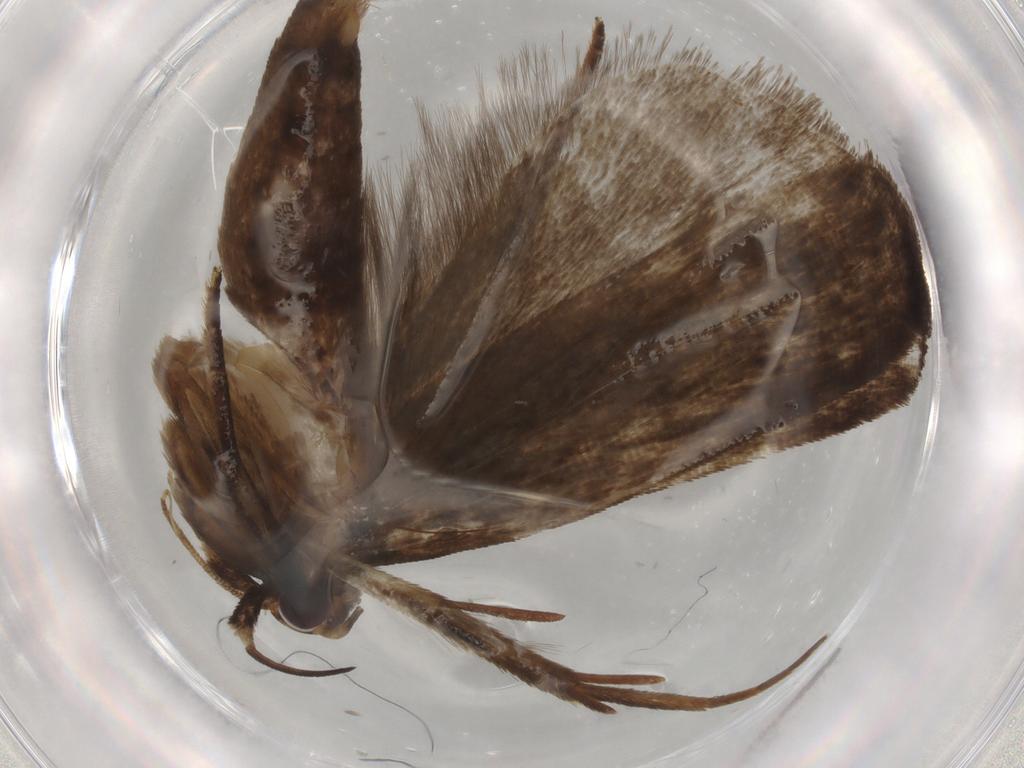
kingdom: Animalia
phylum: Arthropoda
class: Insecta
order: Lepidoptera
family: Gelechiidae
